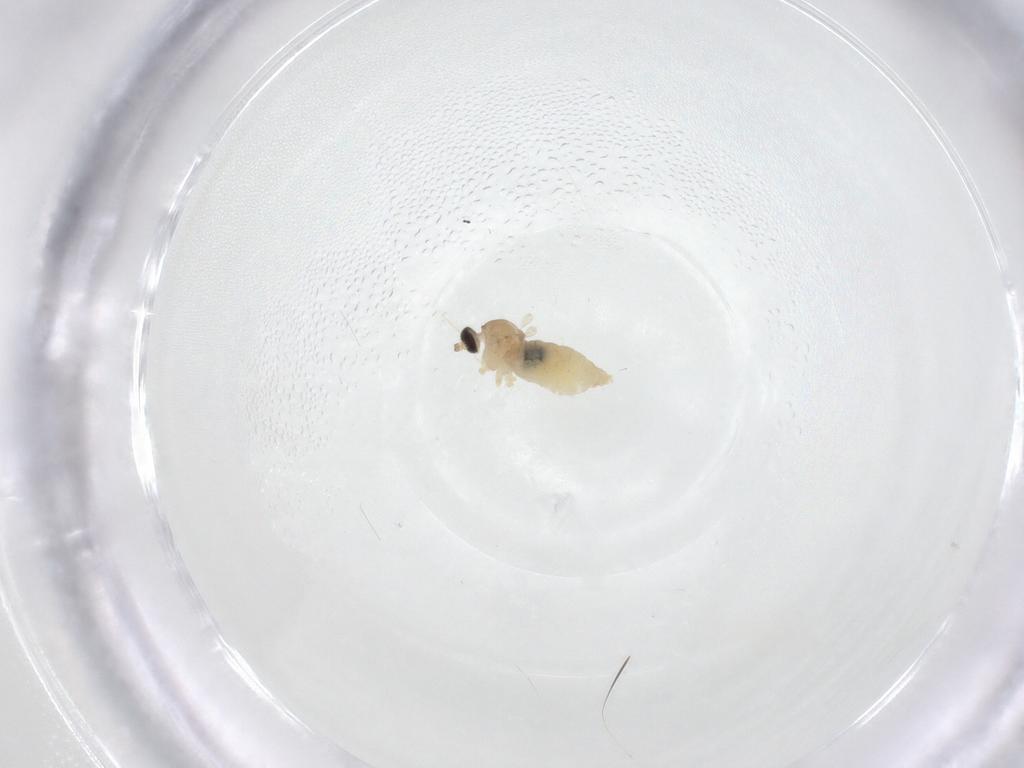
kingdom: Animalia
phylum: Arthropoda
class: Insecta
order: Diptera
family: Cecidomyiidae
